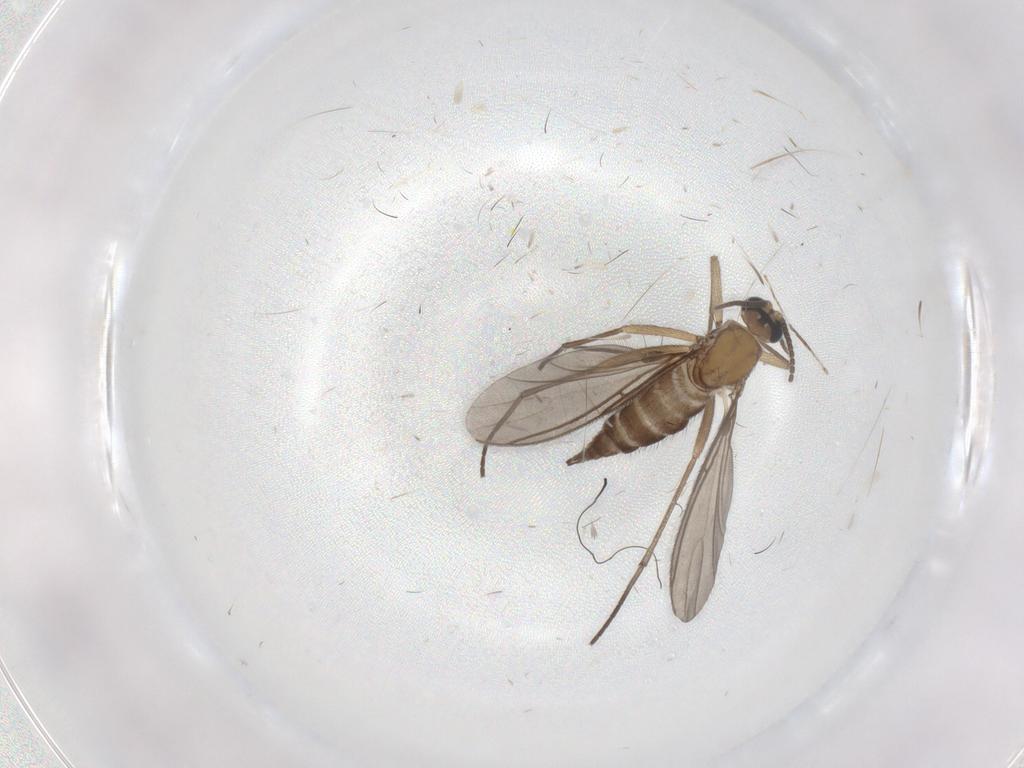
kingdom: Animalia
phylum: Arthropoda
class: Insecta
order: Diptera
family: Sciaridae
